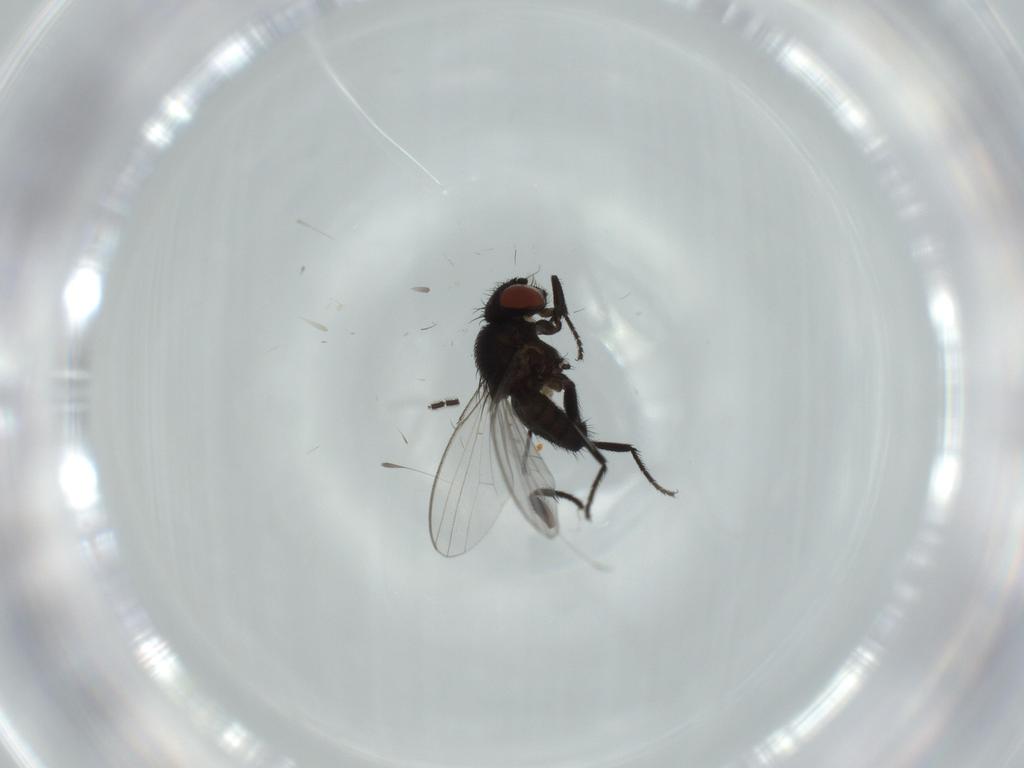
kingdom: Animalia
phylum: Arthropoda
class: Insecta
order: Diptera
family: Milichiidae
